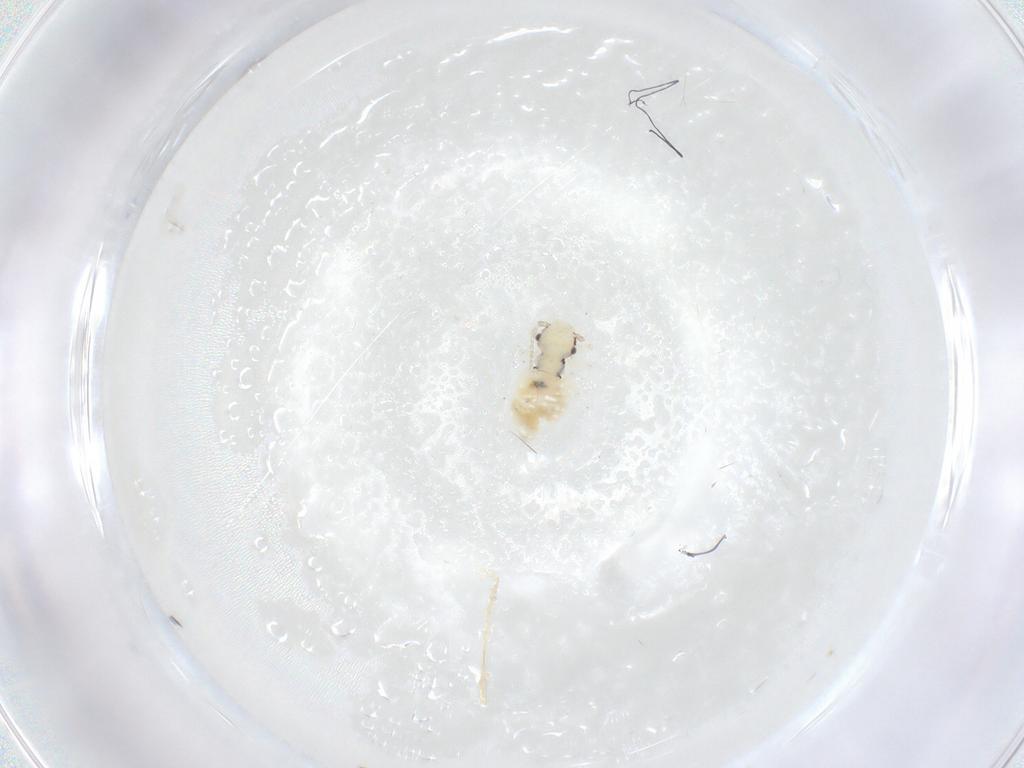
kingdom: Animalia
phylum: Arthropoda
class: Insecta
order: Psocodea
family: Caeciliusidae
